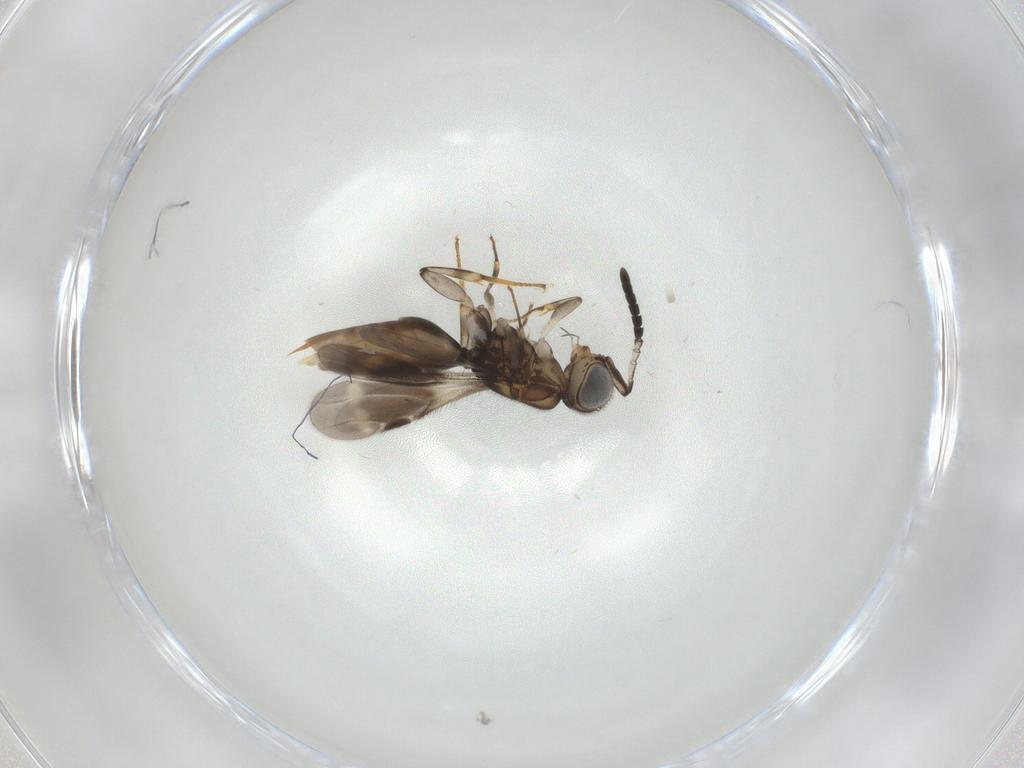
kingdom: Animalia
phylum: Arthropoda
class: Insecta
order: Hymenoptera
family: Megaspilidae
